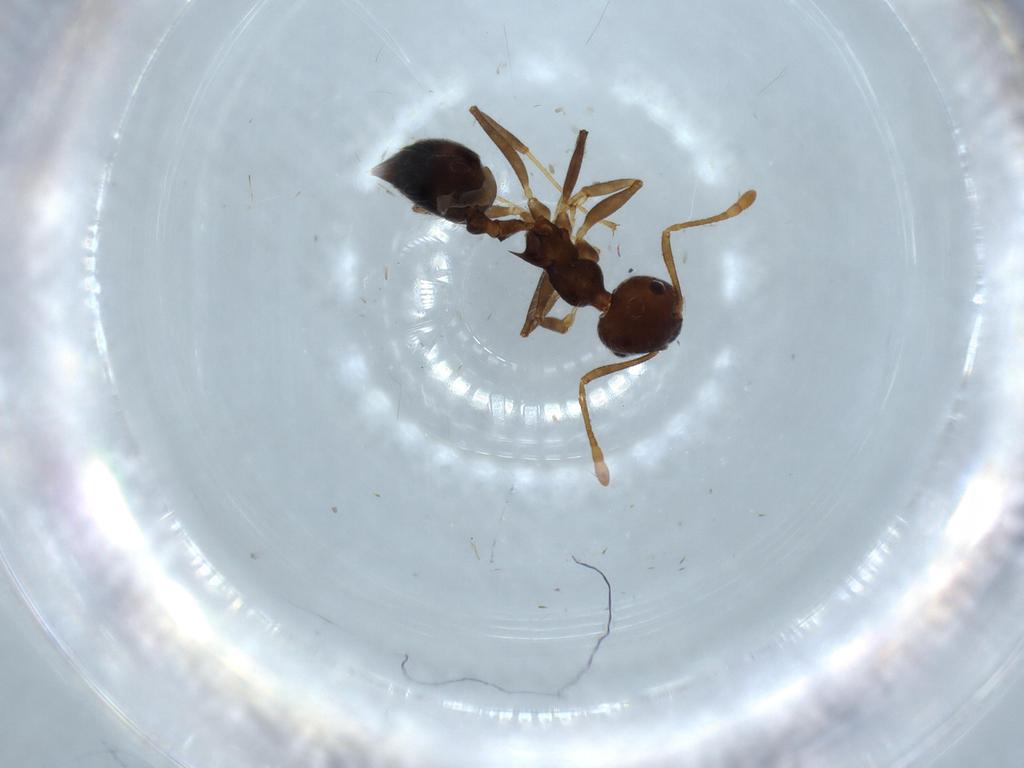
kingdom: Animalia
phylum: Arthropoda
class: Insecta
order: Hymenoptera
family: Formicidae
